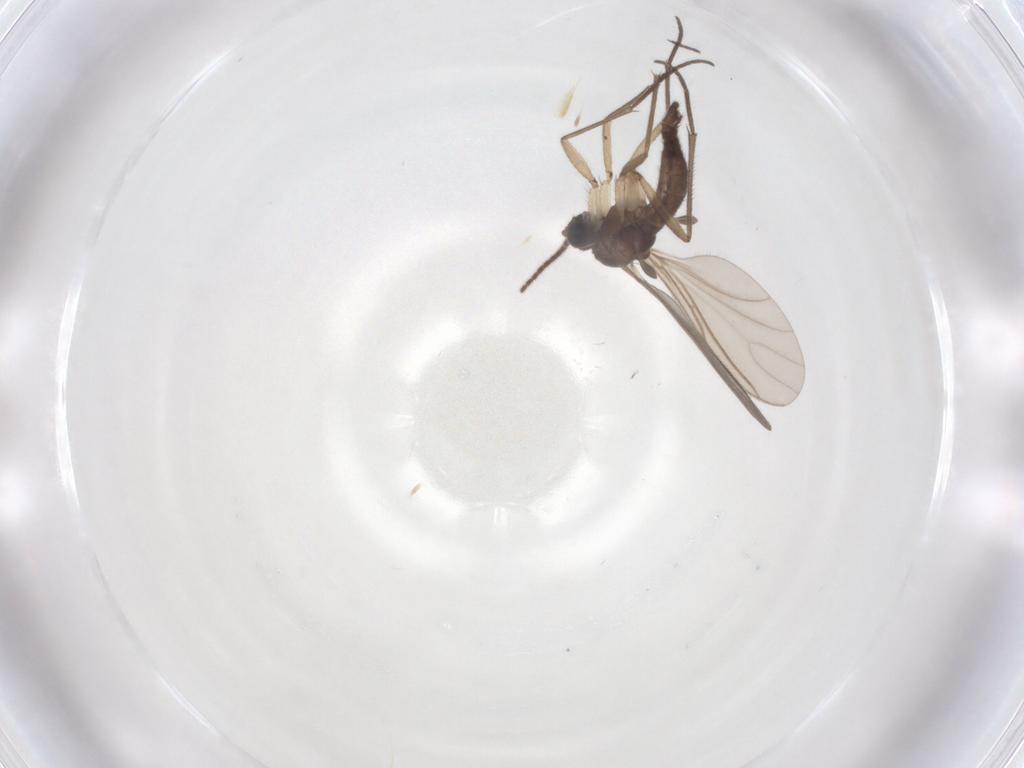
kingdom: Animalia
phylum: Arthropoda
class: Insecta
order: Diptera
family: Sciaridae
